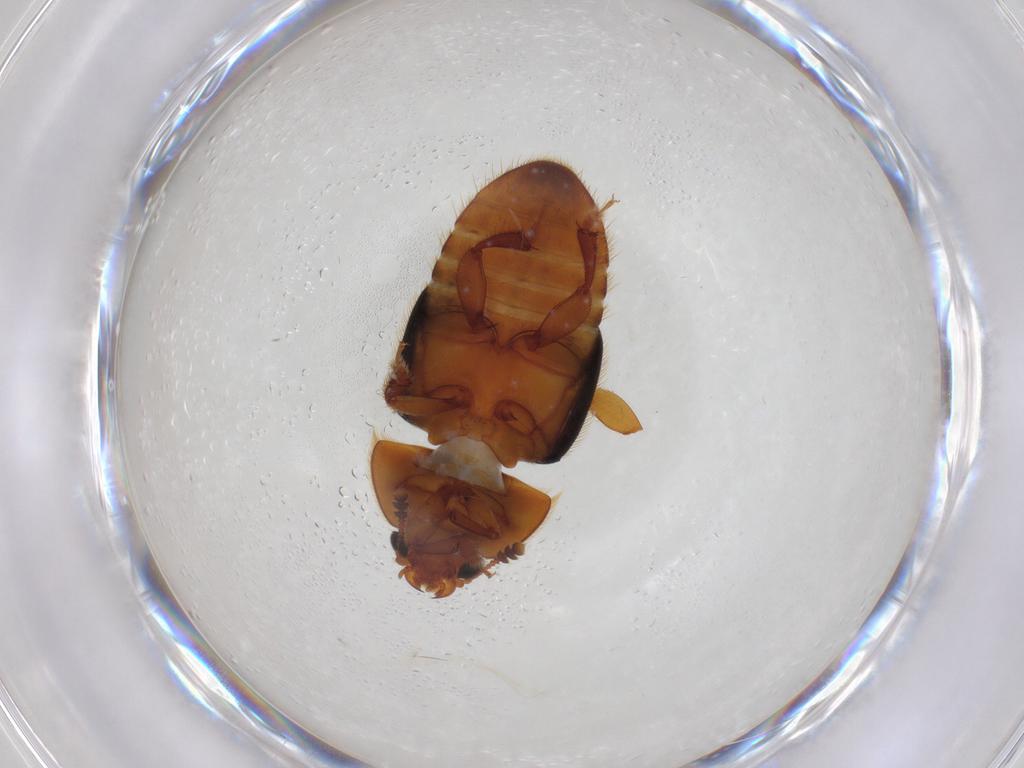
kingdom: Animalia
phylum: Arthropoda
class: Insecta
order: Coleoptera
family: Nitidulidae
